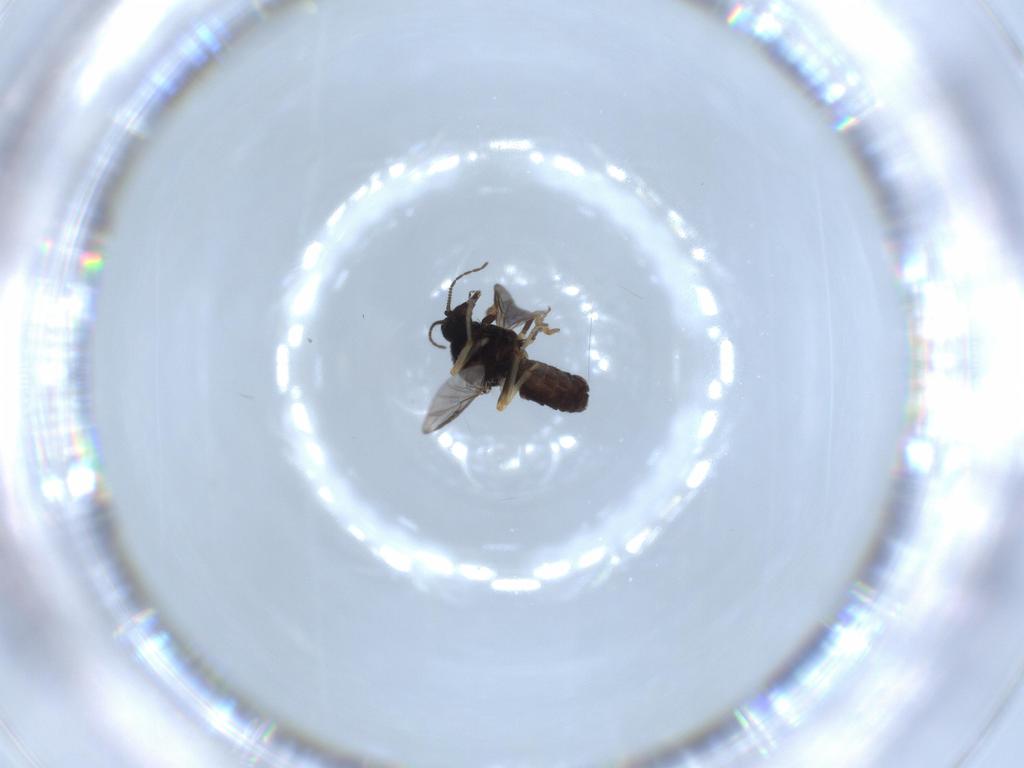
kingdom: Animalia
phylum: Arthropoda
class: Insecta
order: Diptera
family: Ceratopogonidae
